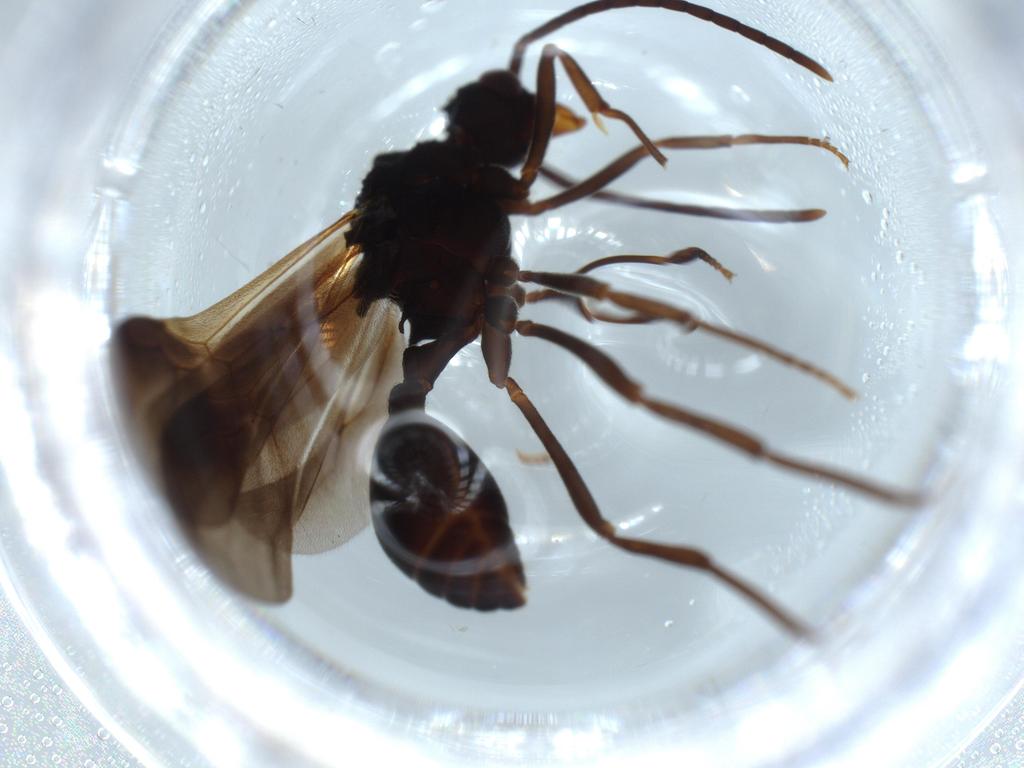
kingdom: Animalia
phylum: Arthropoda
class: Insecta
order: Hymenoptera
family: Formicidae
